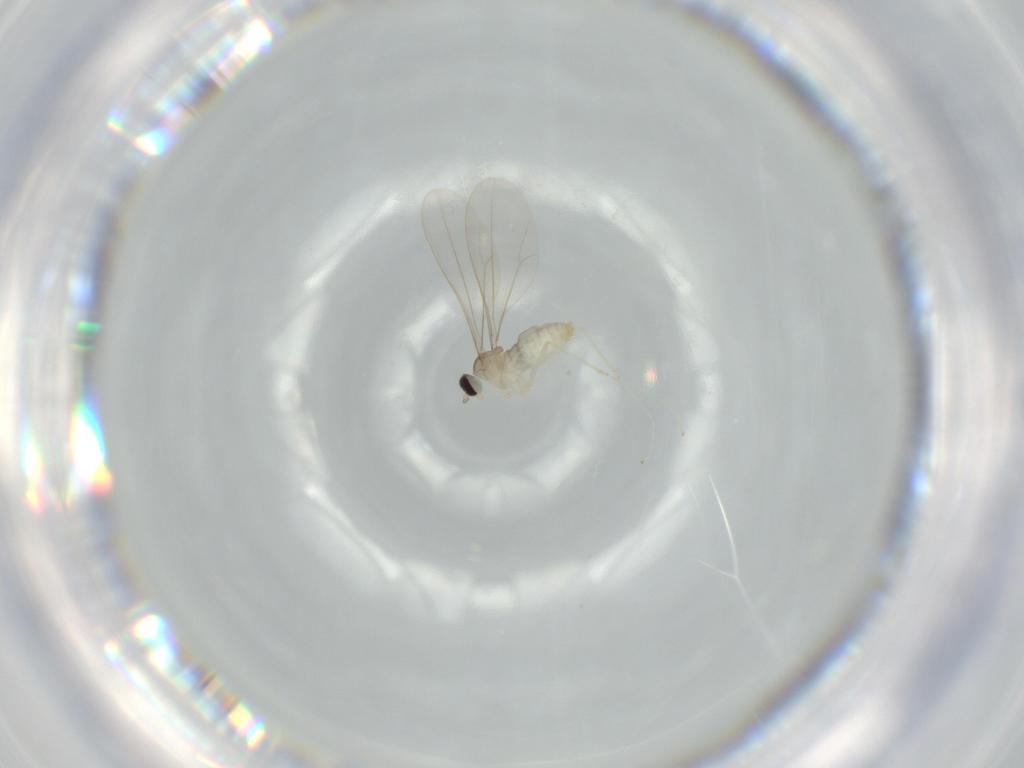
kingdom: Animalia
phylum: Arthropoda
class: Insecta
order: Diptera
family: Cecidomyiidae
